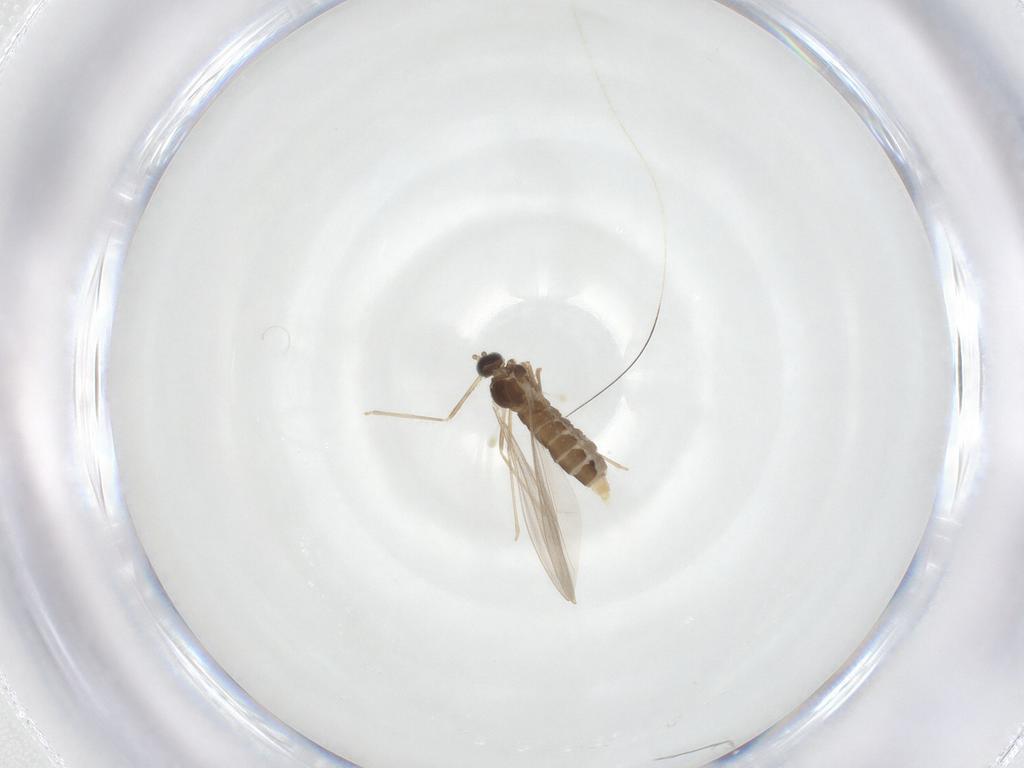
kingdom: Animalia
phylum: Arthropoda
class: Insecta
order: Diptera
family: Cecidomyiidae
